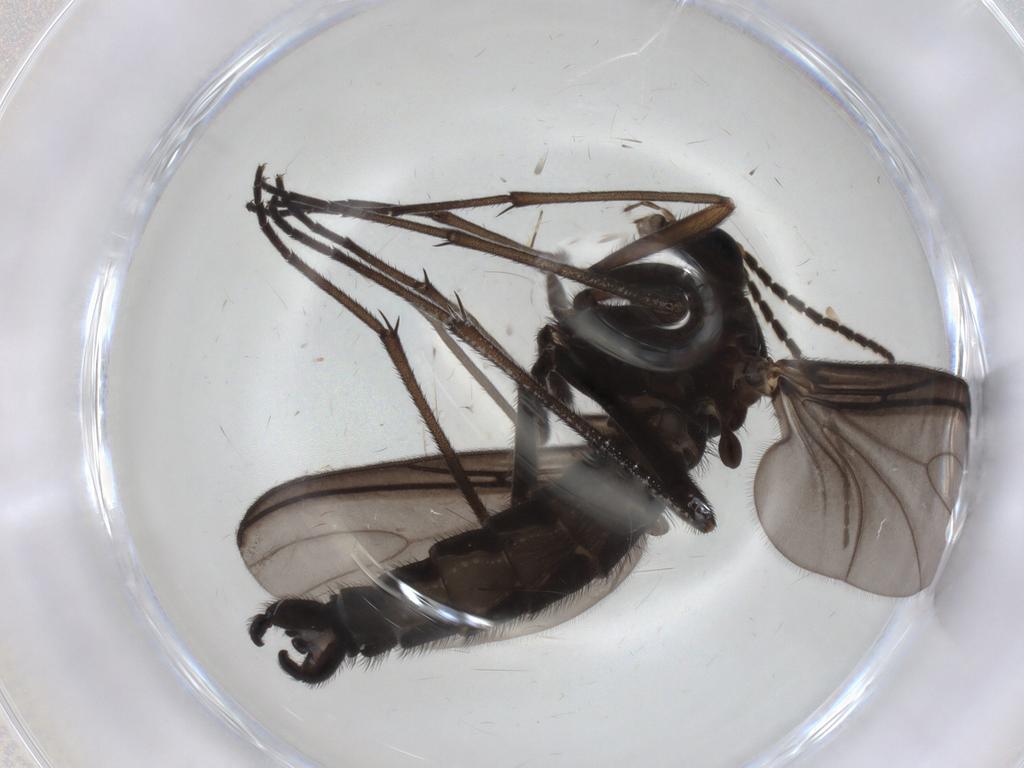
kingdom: Animalia
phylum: Arthropoda
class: Insecta
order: Diptera
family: Sciaridae
